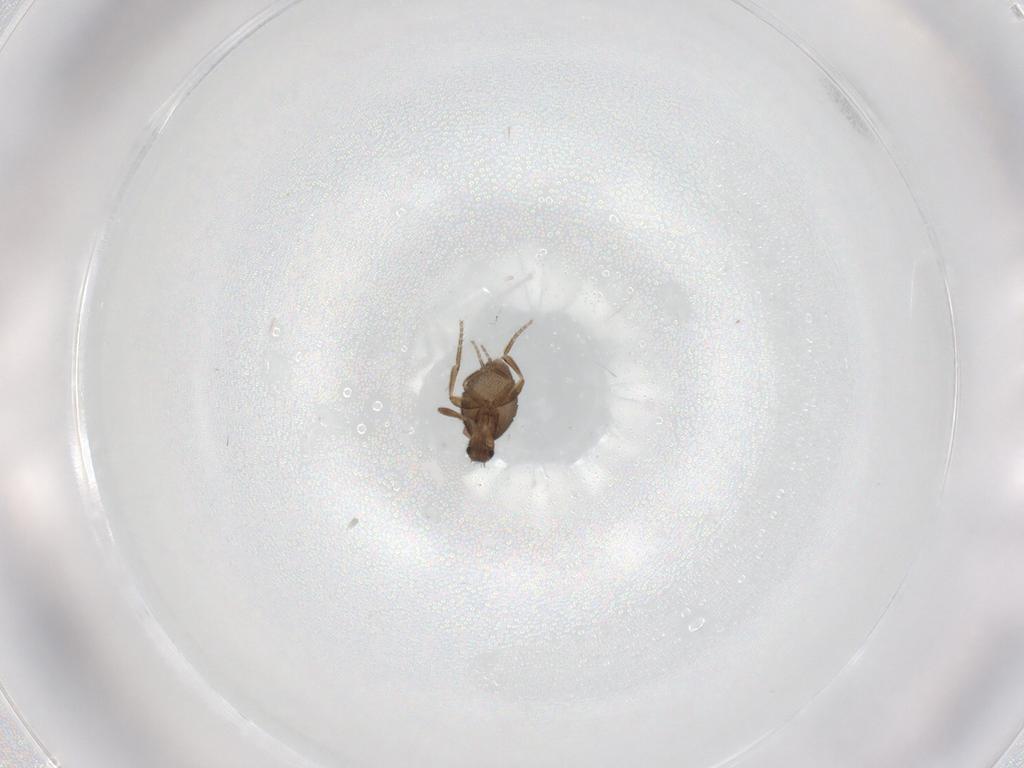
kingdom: Animalia
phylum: Arthropoda
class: Insecta
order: Diptera
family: Phoridae
